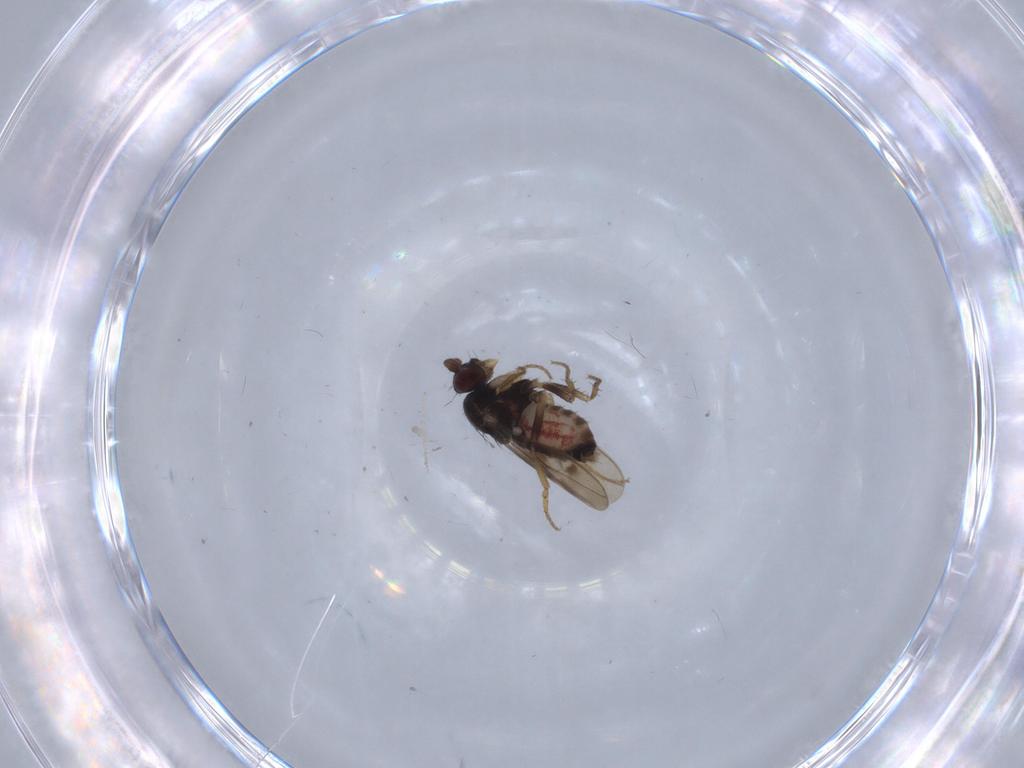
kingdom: Animalia
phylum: Arthropoda
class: Insecta
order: Diptera
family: Sphaeroceridae
